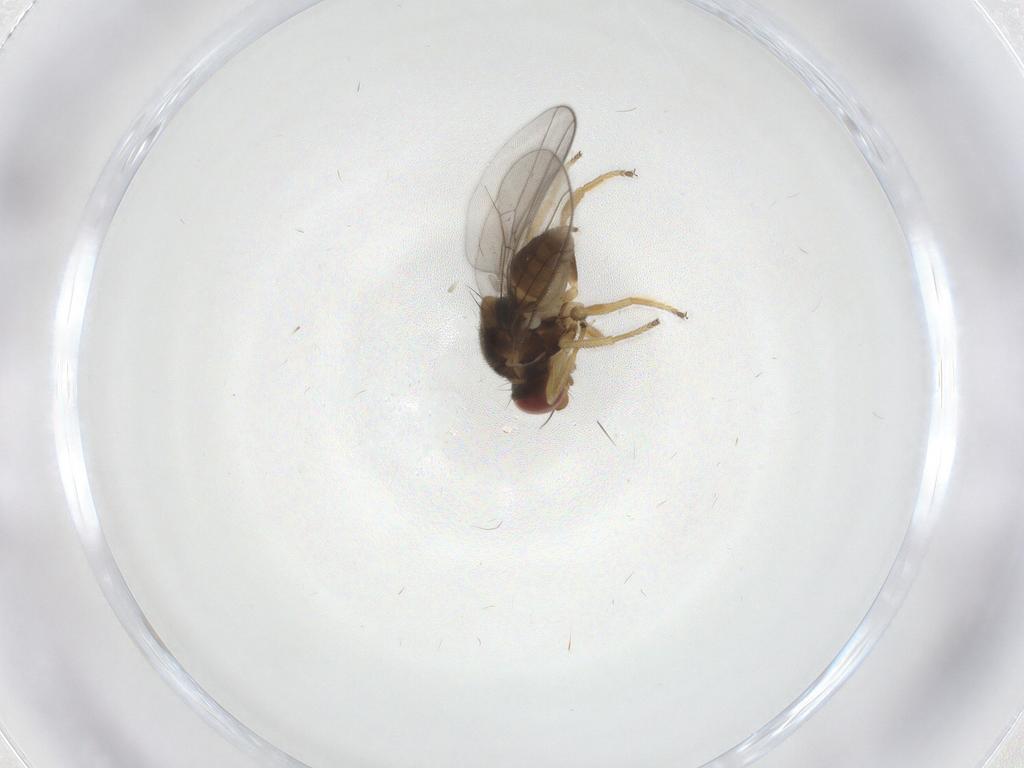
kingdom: Animalia
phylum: Arthropoda
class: Insecta
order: Diptera
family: Chloropidae
